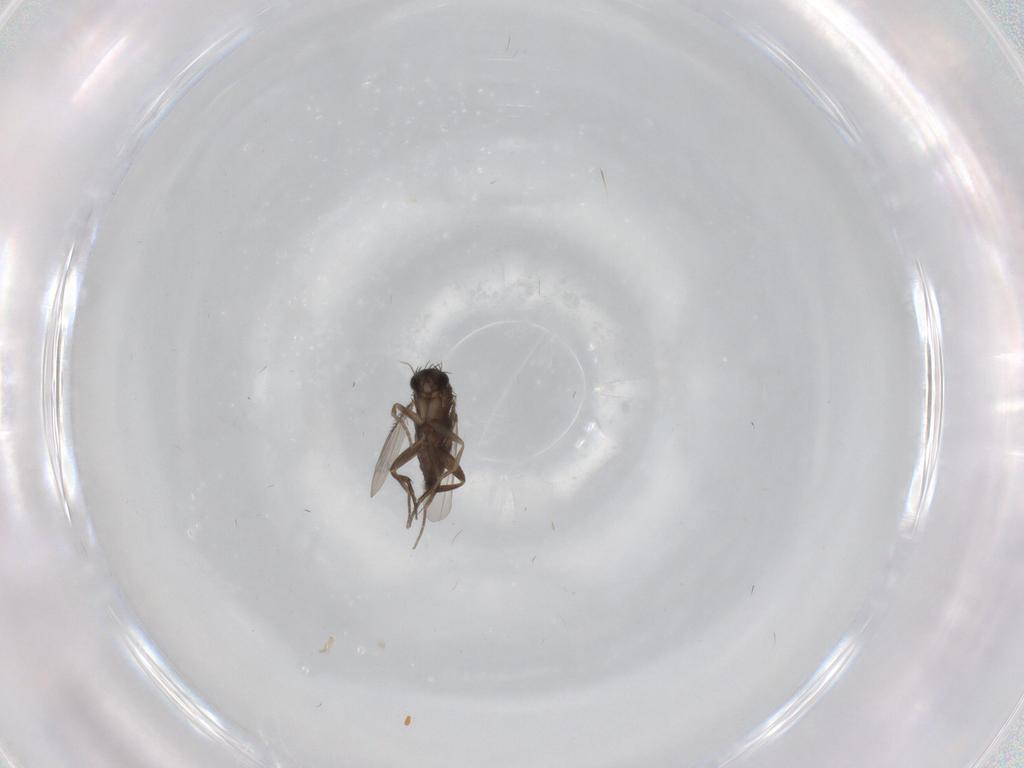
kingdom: Animalia
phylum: Arthropoda
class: Insecta
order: Diptera
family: Phoridae
